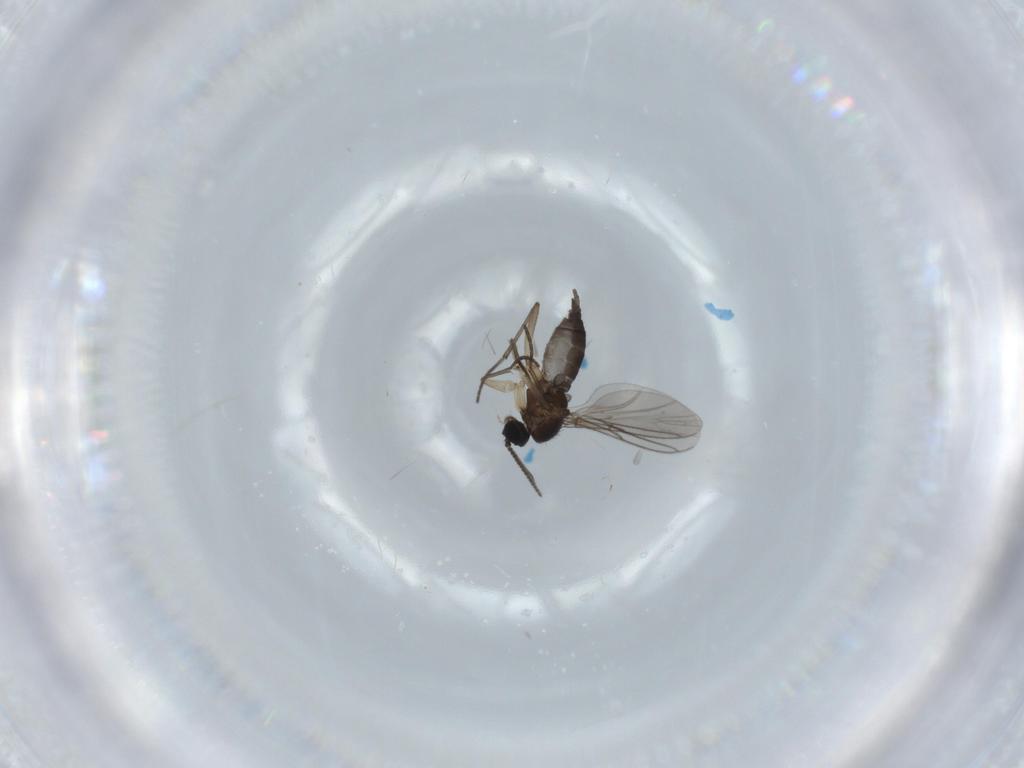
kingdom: Animalia
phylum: Arthropoda
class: Insecta
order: Diptera
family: Sciaridae
